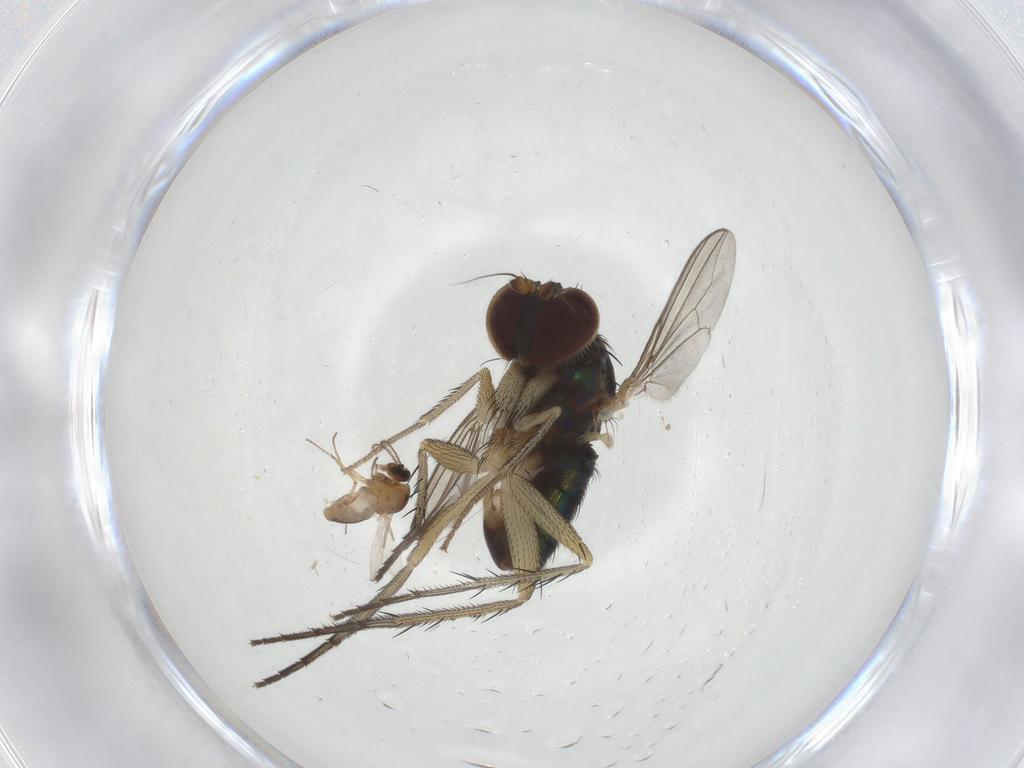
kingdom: Animalia
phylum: Arthropoda
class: Insecta
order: Diptera
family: Dolichopodidae
